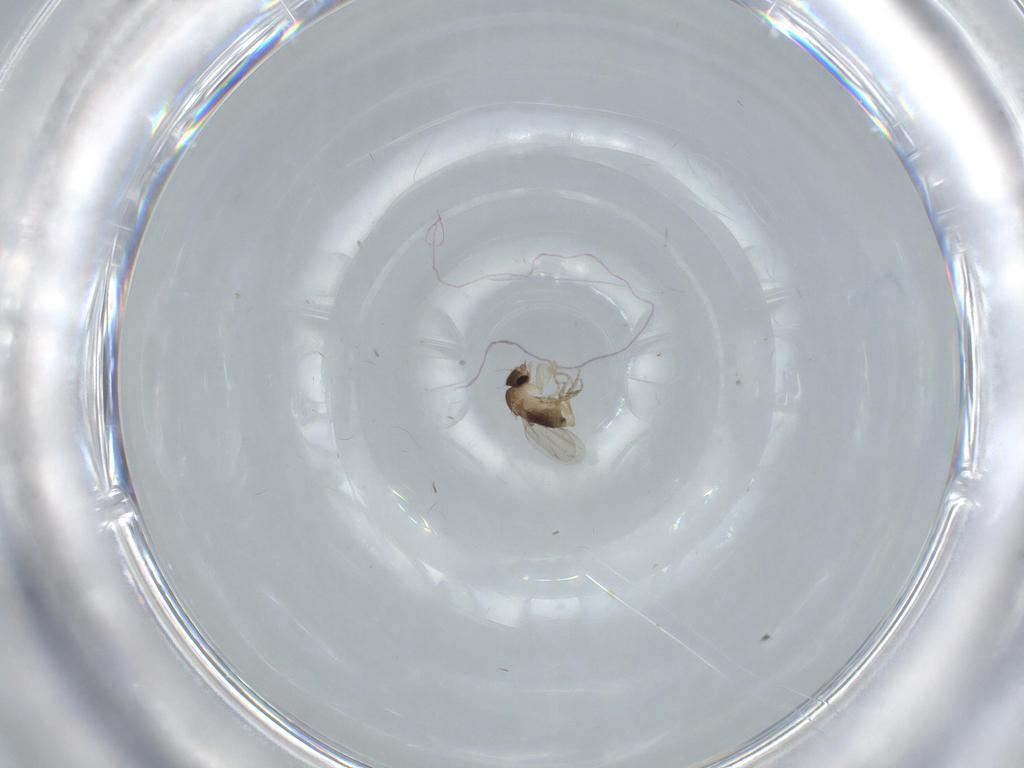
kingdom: Animalia
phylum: Arthropoda
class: Insecta
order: Diptera
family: Phoridae
